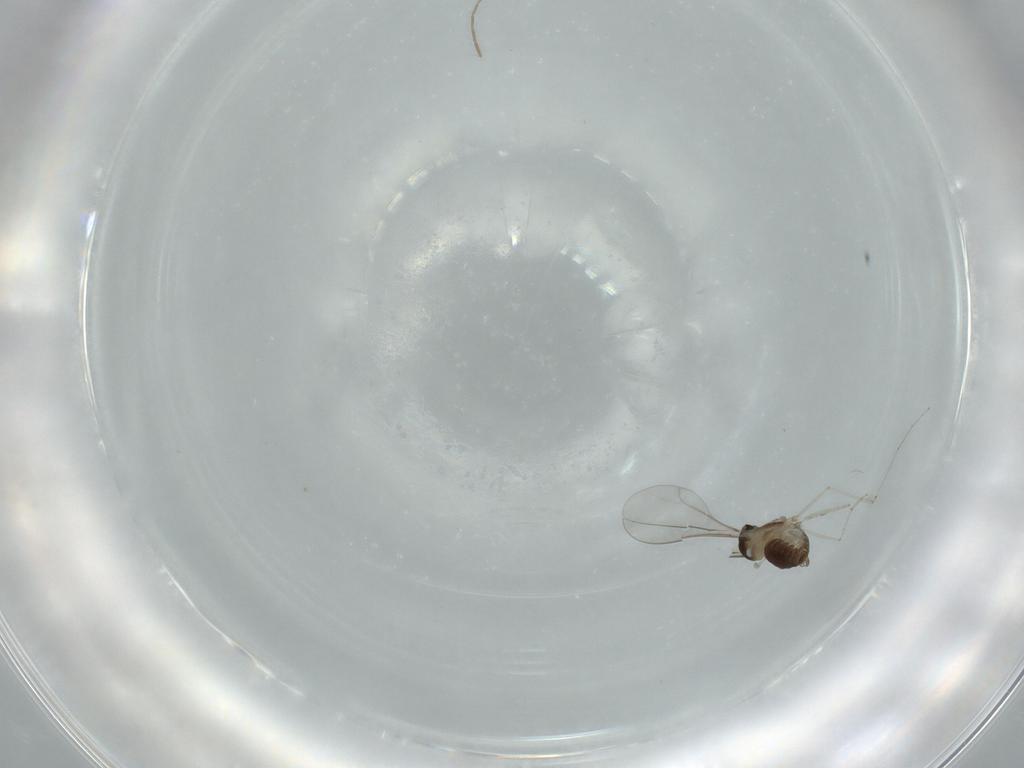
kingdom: Animalia
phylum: Arthropoda
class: Insecta
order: Diptera
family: Cecidomyiidae
